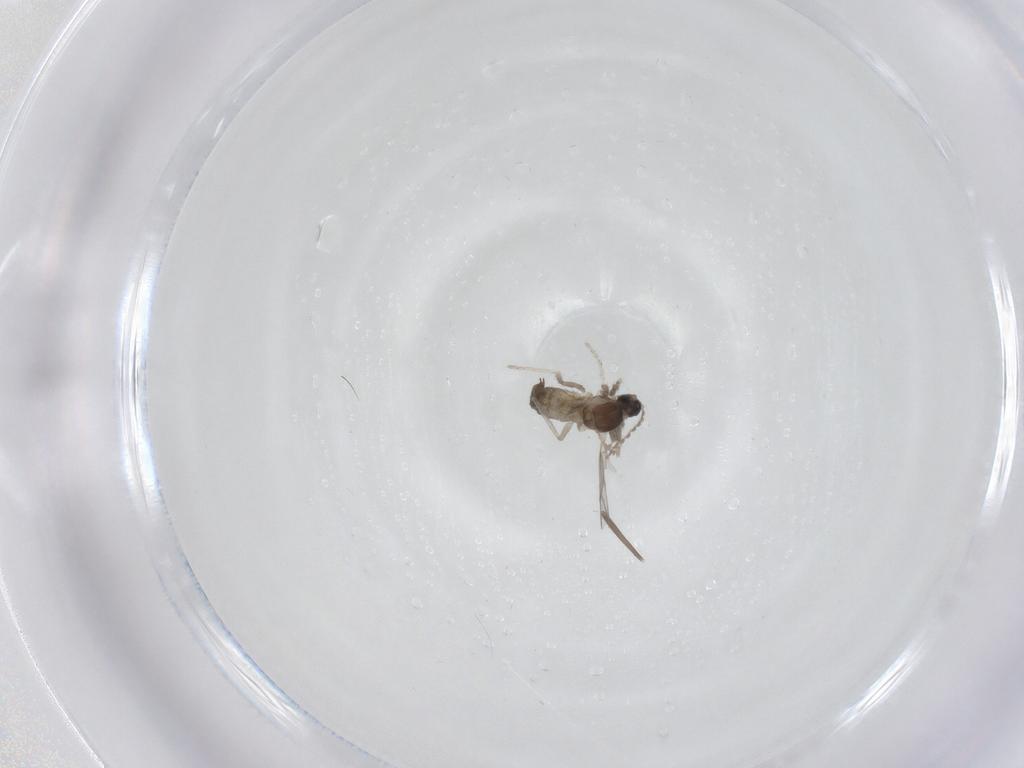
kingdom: Animalia
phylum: Arthropoda
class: Insecta
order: Diptera
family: Cecidomyiidae
